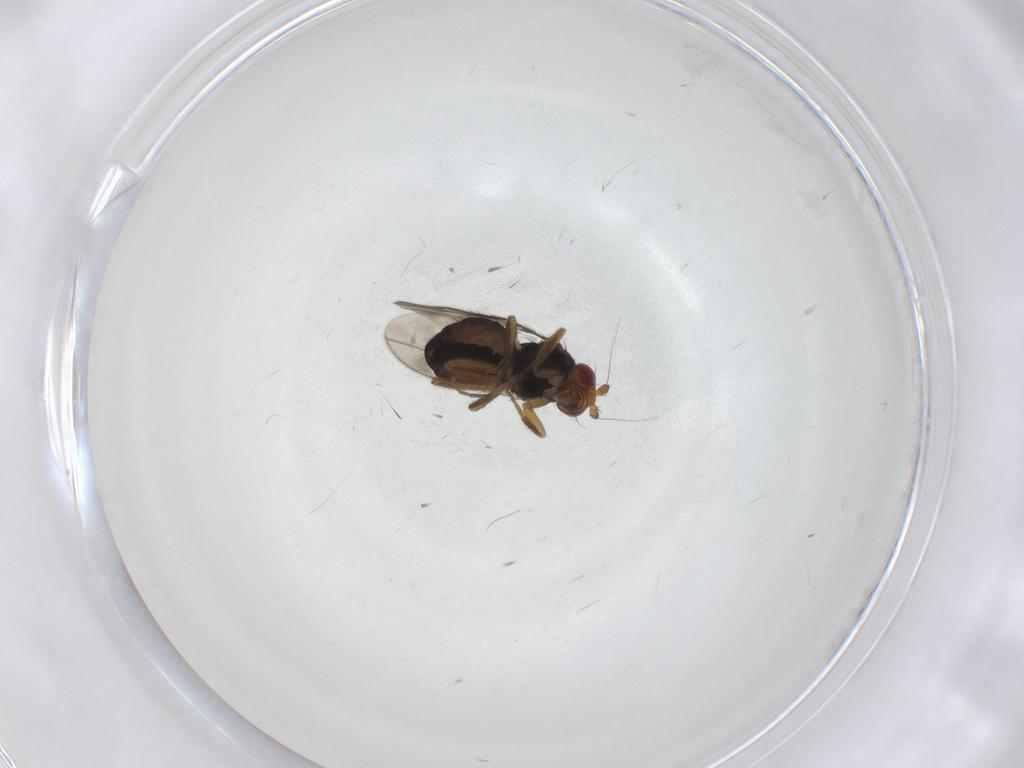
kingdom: Animalia
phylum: Arthropoda
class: Insecta
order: Diptera
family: Sphaeroceridae
